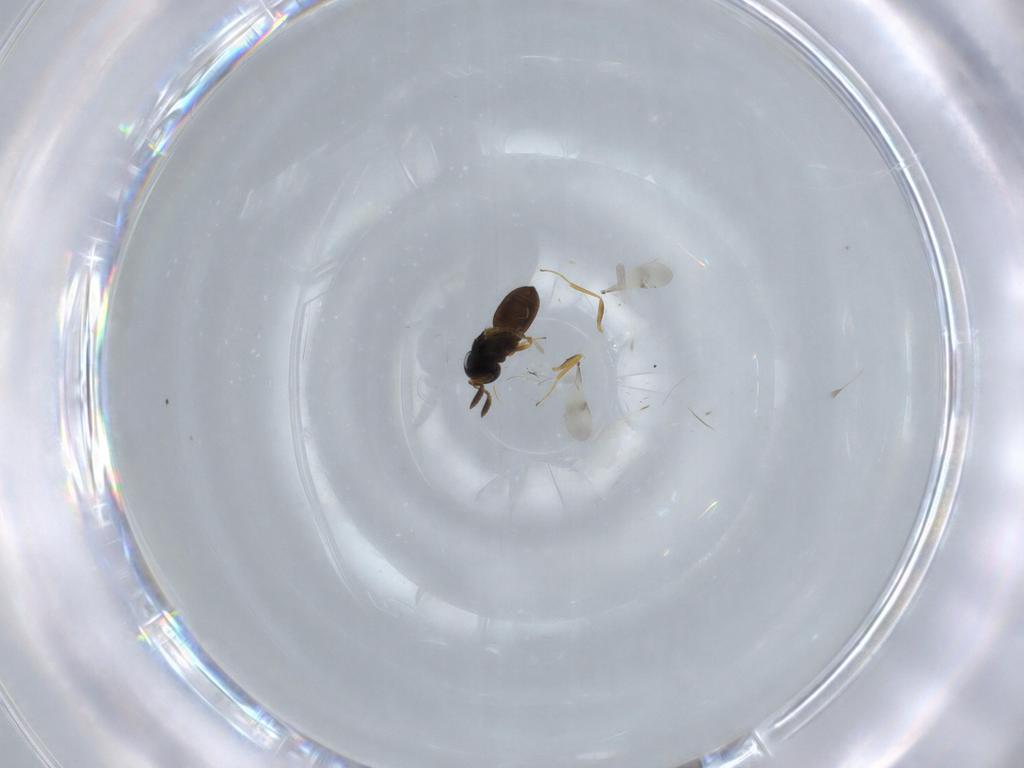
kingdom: Animalia
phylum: Arthropoda
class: Insecta
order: Hymenoptera
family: Scelionidae
